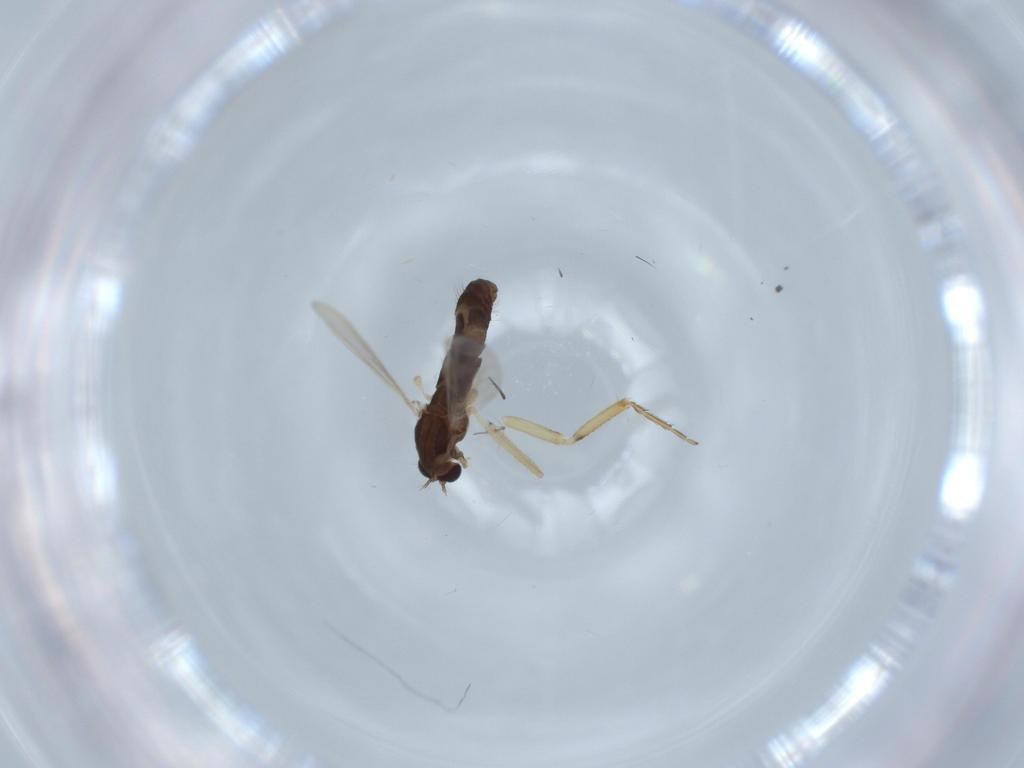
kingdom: Animalia
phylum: Arthropoda
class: Insecta
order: Diptera
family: Chironomidae
